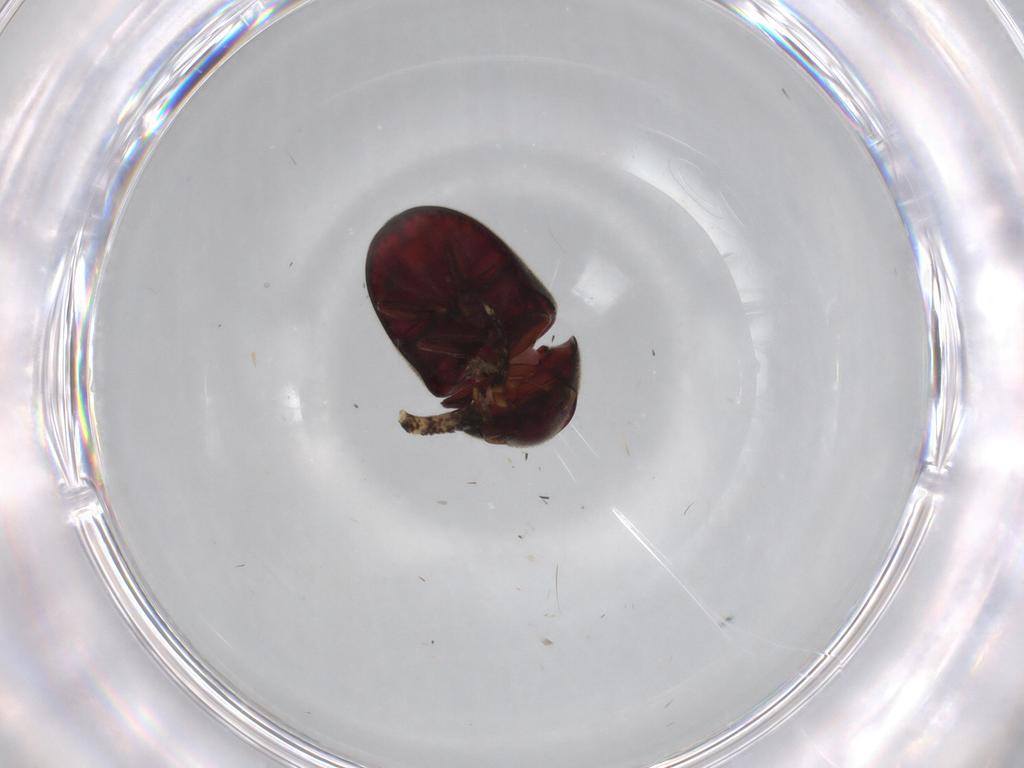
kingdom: Animalia
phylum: Arthropoda
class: Insecta
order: Coleoptera
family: Ptinidae
